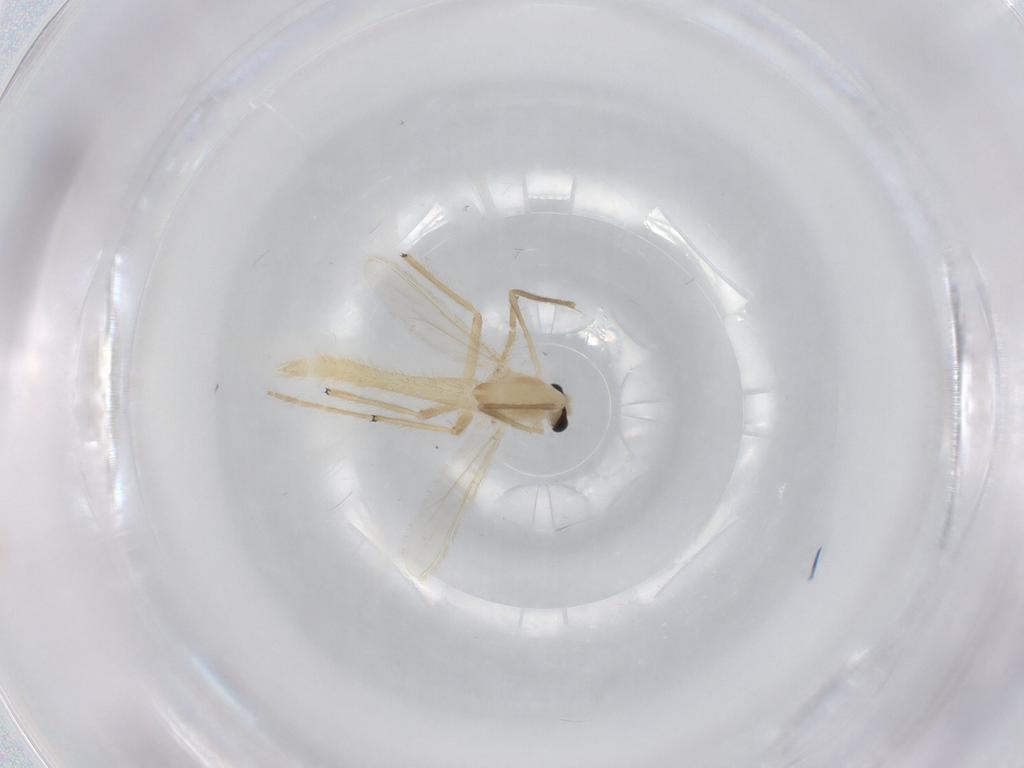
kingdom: Animalia
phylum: Arthropoda
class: Insecta
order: Diptera
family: Chironomidae
